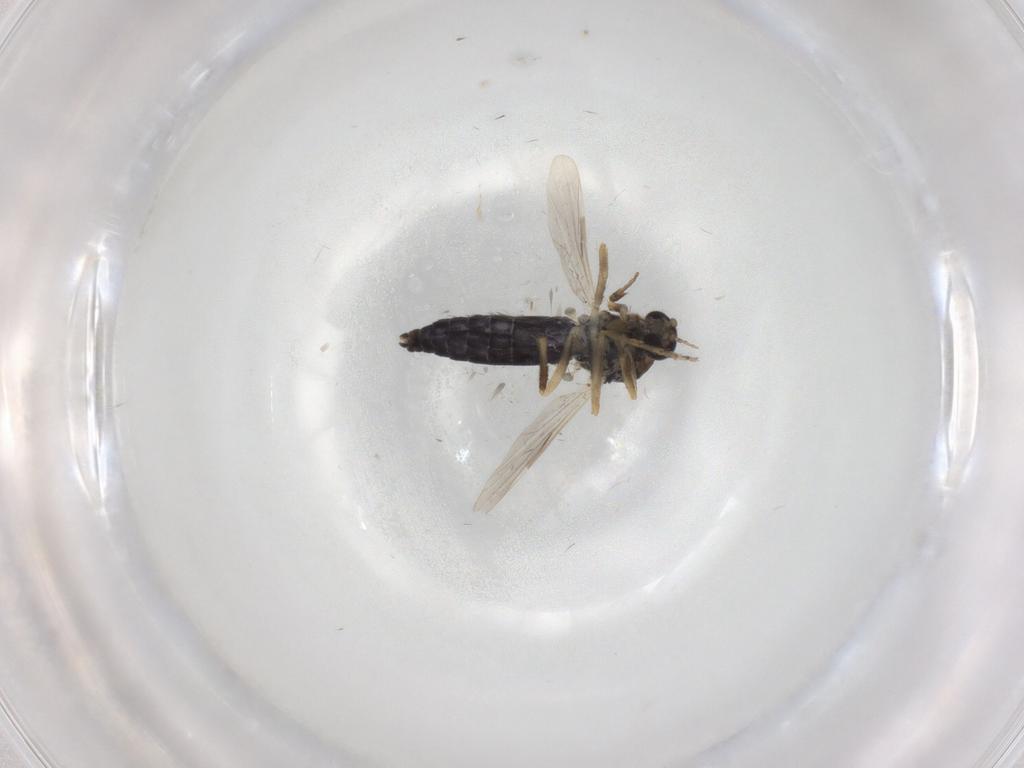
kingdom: Animalia
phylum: Arthropoda
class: Insecta
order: Diptera
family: Ceratopogonidae
